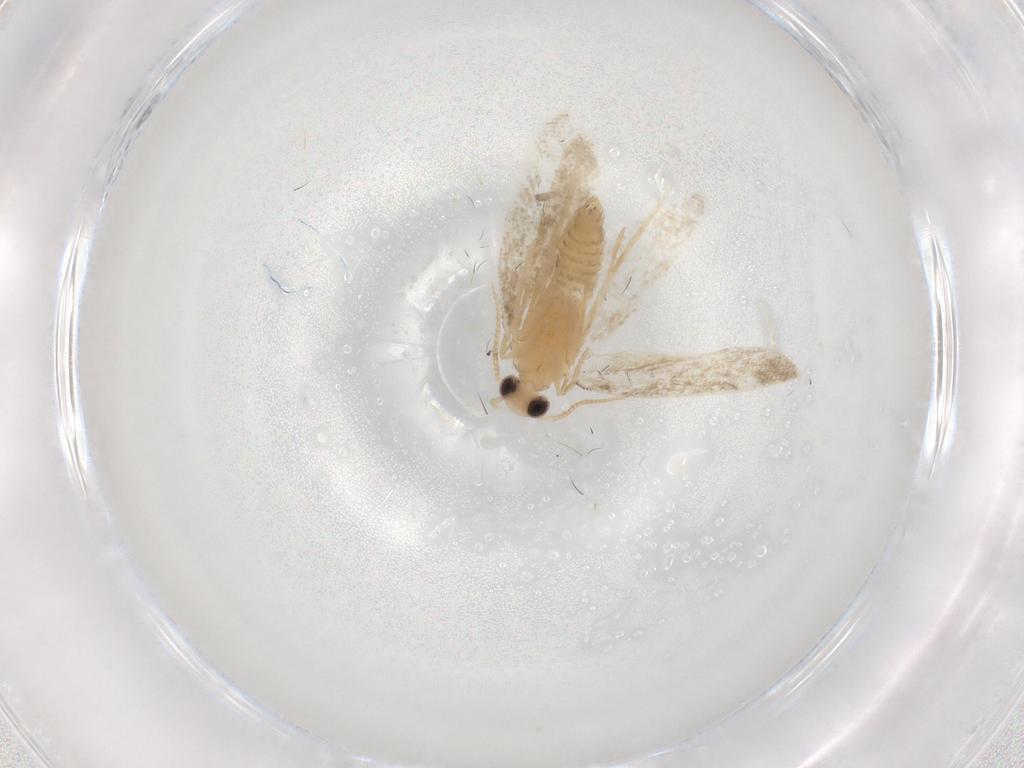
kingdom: Animalia
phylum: Arthropoda
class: Insecta
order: Lepidoptera
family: Psychidae
